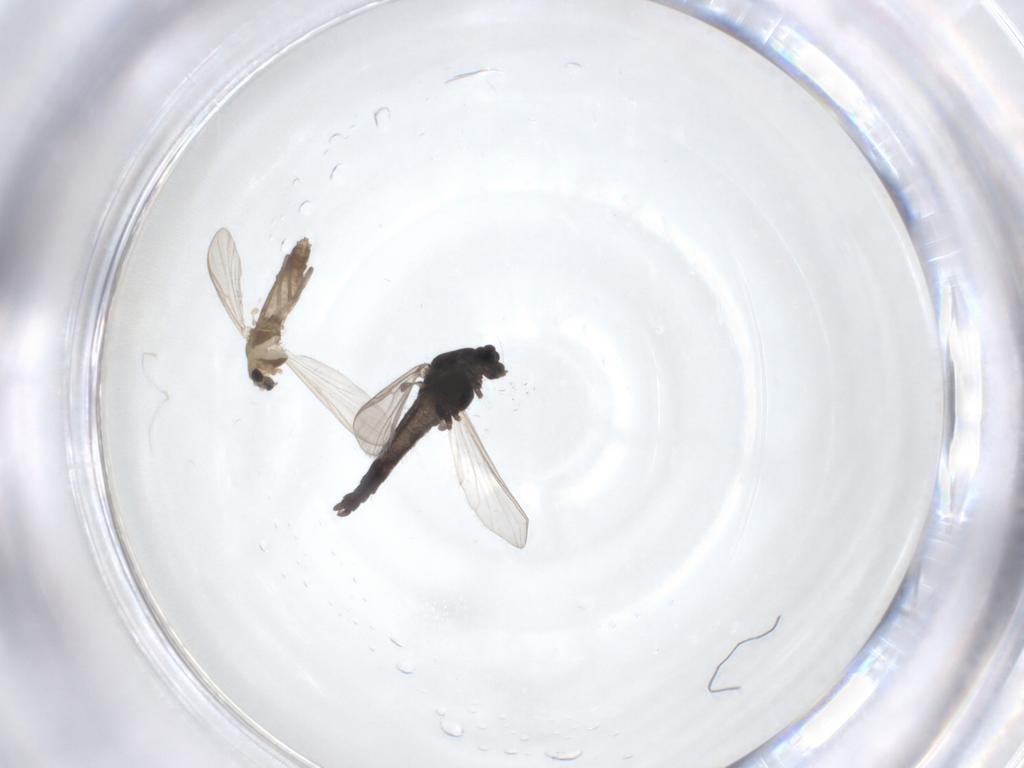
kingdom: Animalia
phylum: Arthropoda
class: Insecta
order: Diptera
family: Chironomidae
